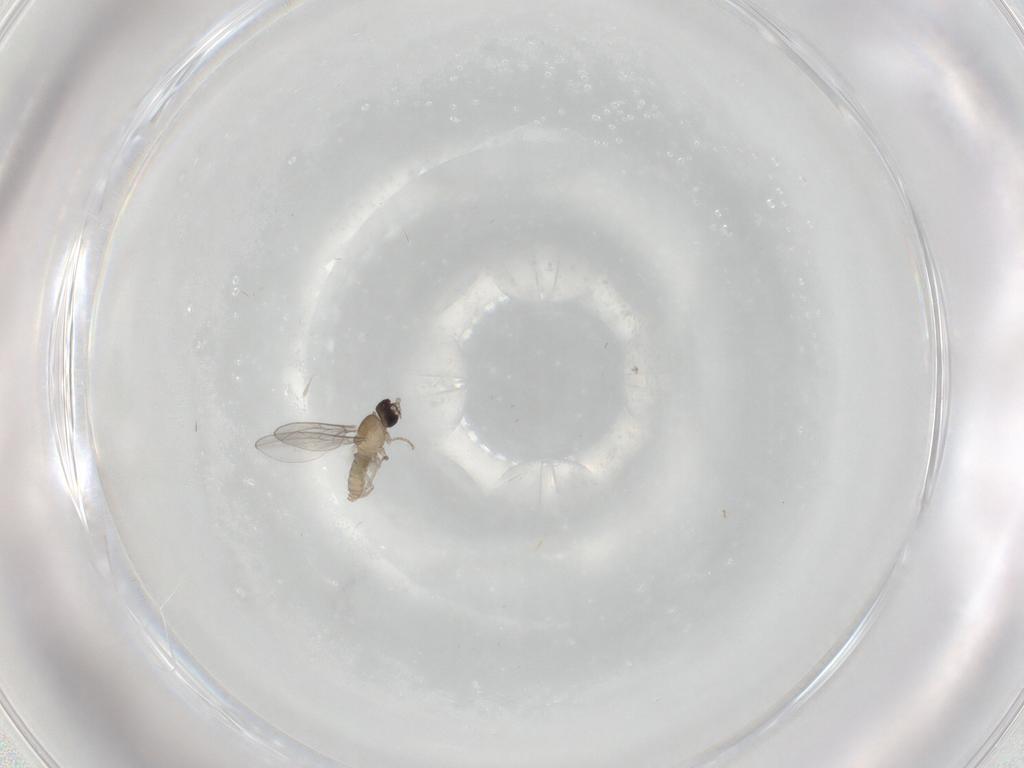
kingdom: Animalia
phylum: Arthropoda
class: Insecta
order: Diptera
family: Cecidomyiidae
